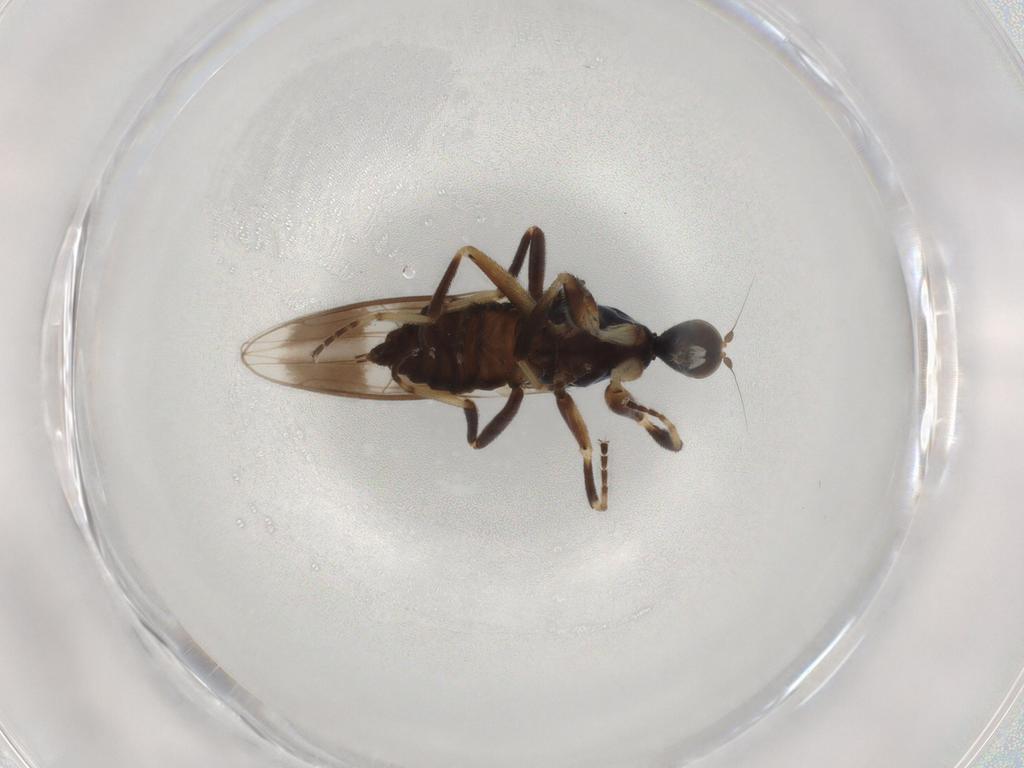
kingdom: Animalia
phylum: Arthropoda
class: Insecta
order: Diptera
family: Hybotidae
